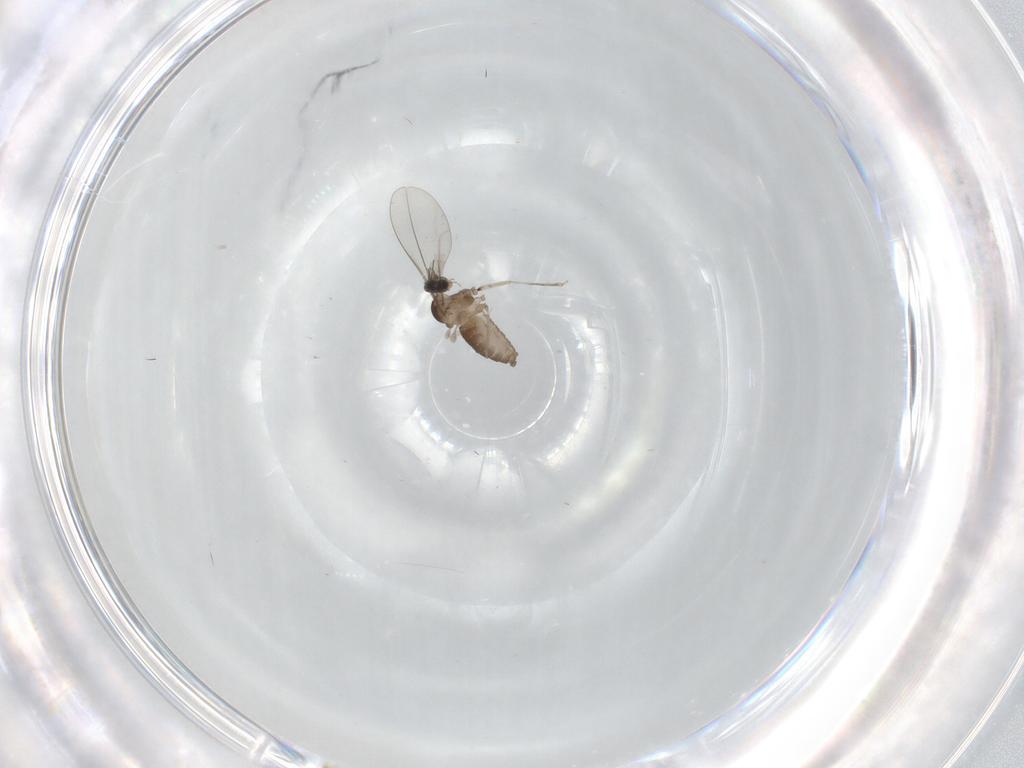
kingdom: Animalia
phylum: Arthropoda
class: Insecta
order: Diptera
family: Cecidomyiidae
